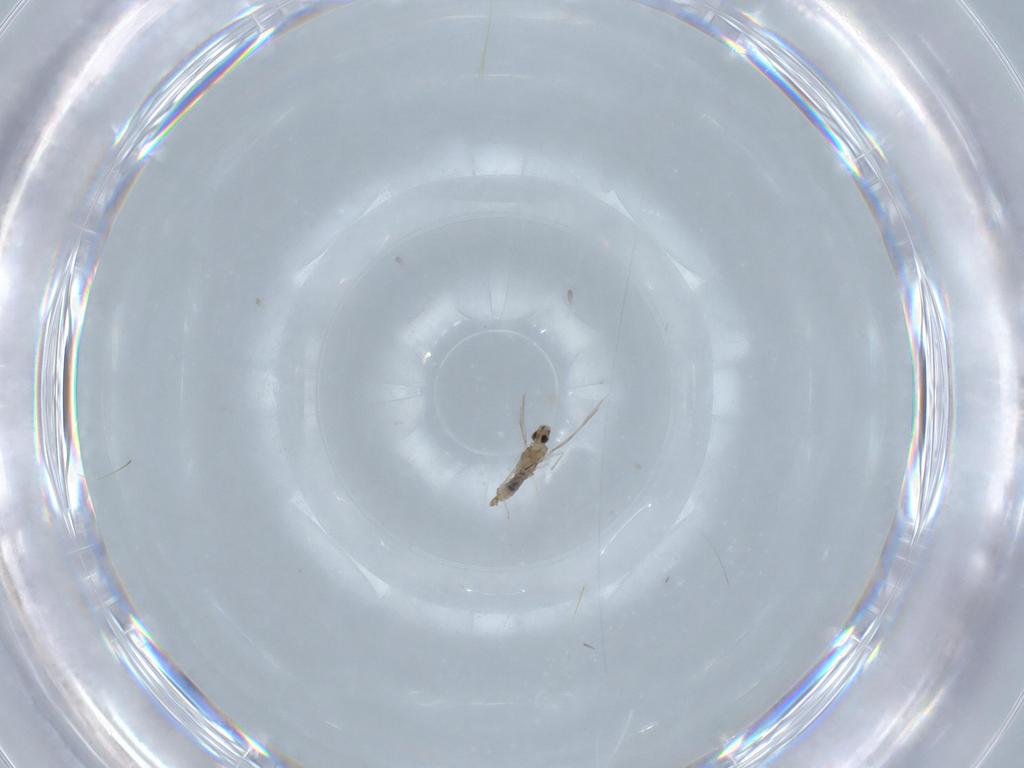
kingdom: Animalia
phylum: Arthropoda
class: Insecta
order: Diptera
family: Cecidomyiidae
